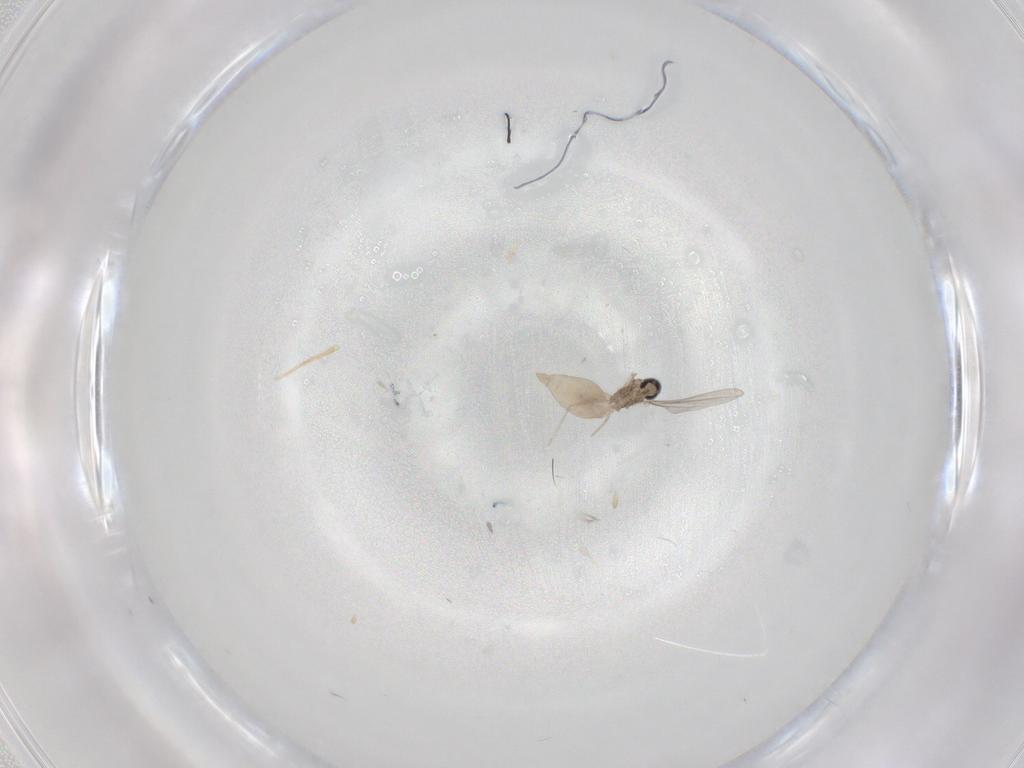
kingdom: Animalia
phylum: Arthropoda
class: Insecta
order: Diptera
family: Cecidomyiidae
